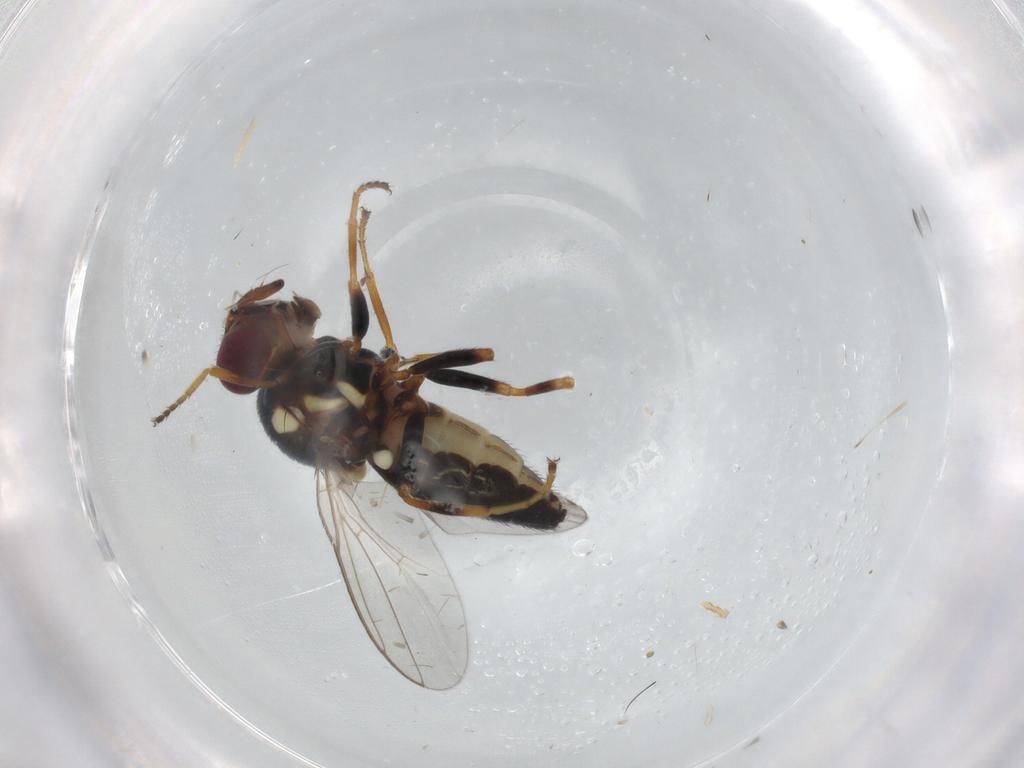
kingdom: Animalia
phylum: Arthropoda
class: Insecta
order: Diptera
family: Chloropidae
